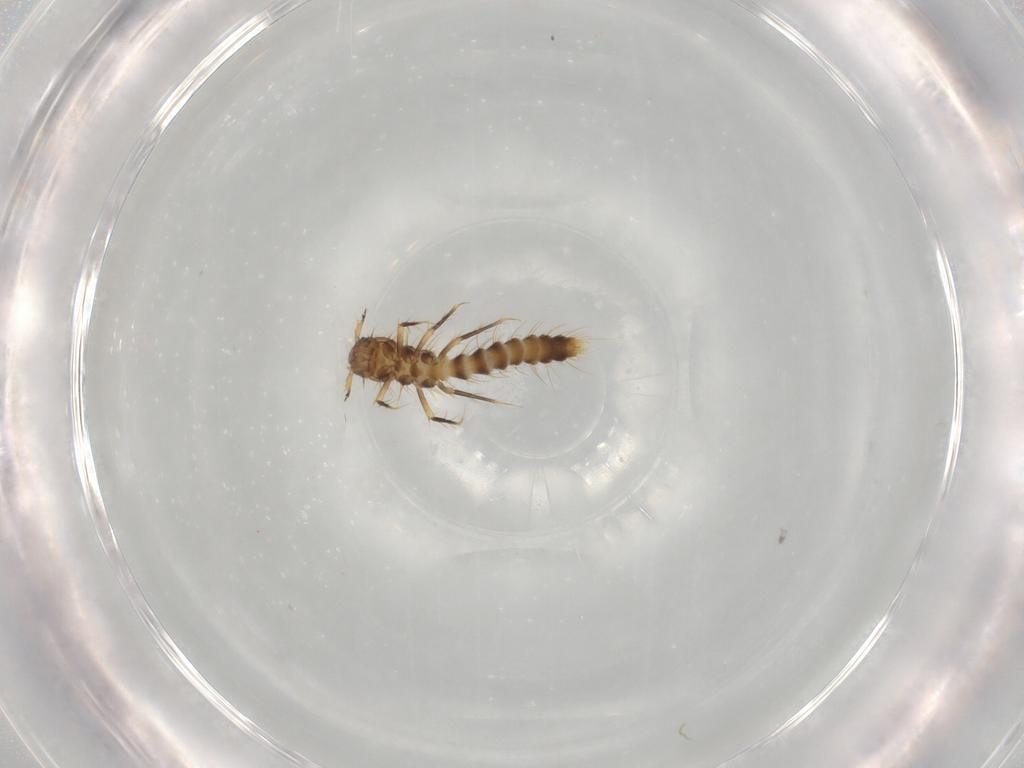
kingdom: Animalia
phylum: Arthropoda
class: Insecta
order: Coleoptera
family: Staphylinidae
